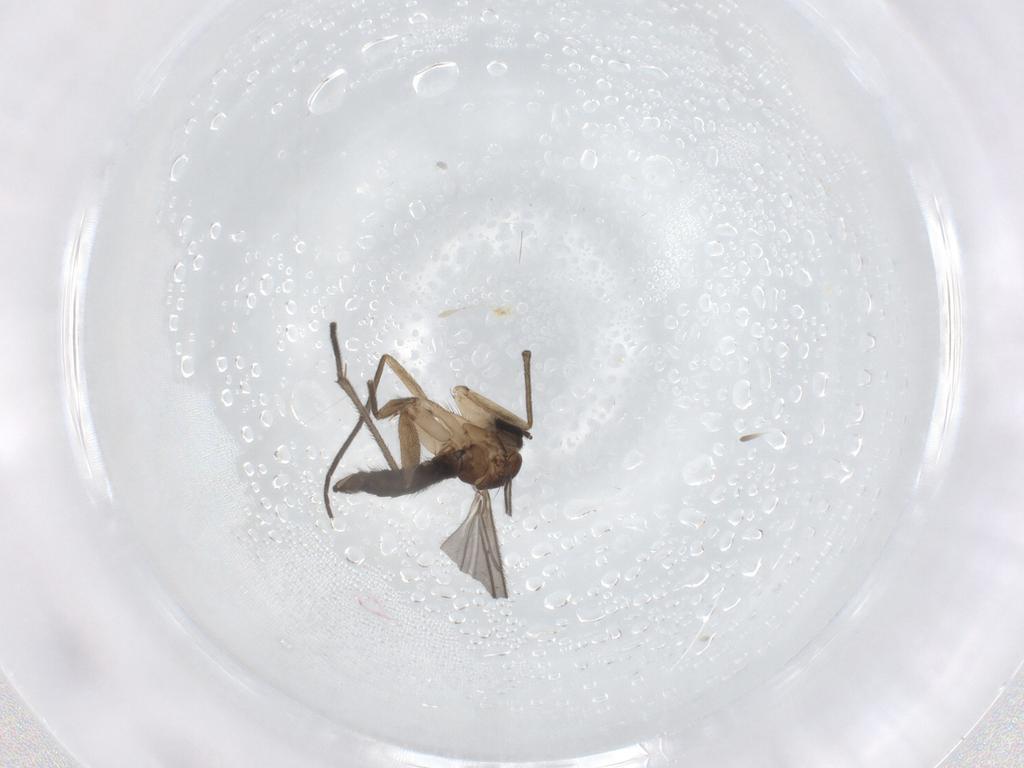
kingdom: Animalia
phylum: Arthropoda
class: Insecta
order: Diptera
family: Sciaridae
